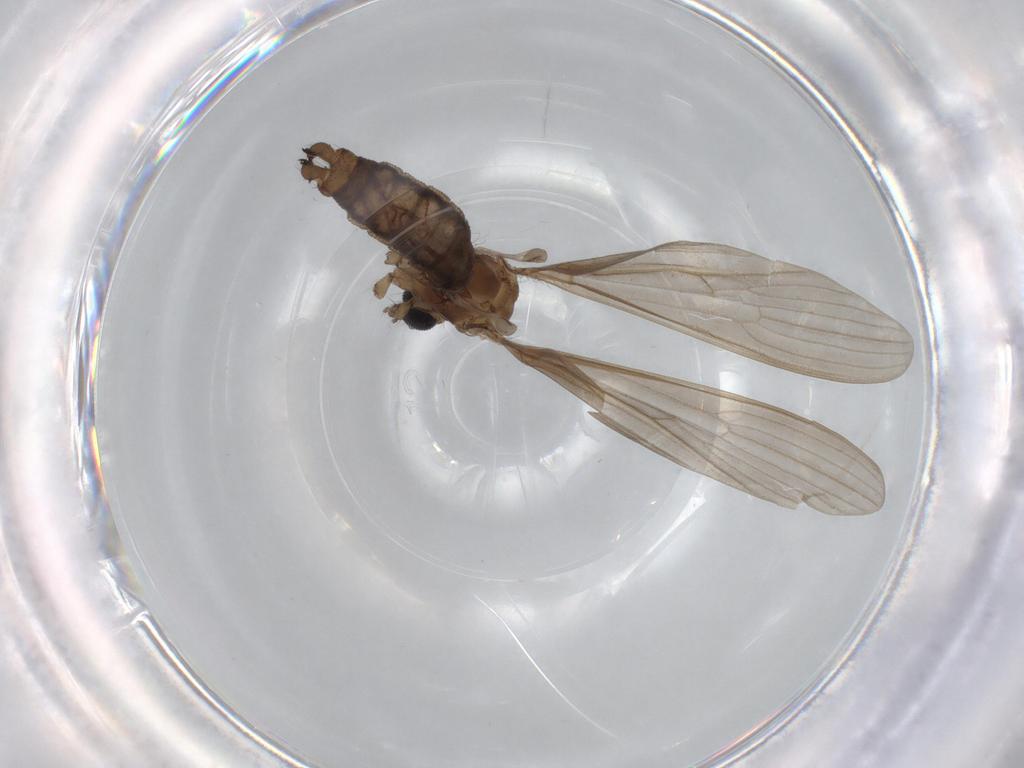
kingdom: Animalia
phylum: Arthropoda
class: Insecta
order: Diptera
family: Chironomidae
